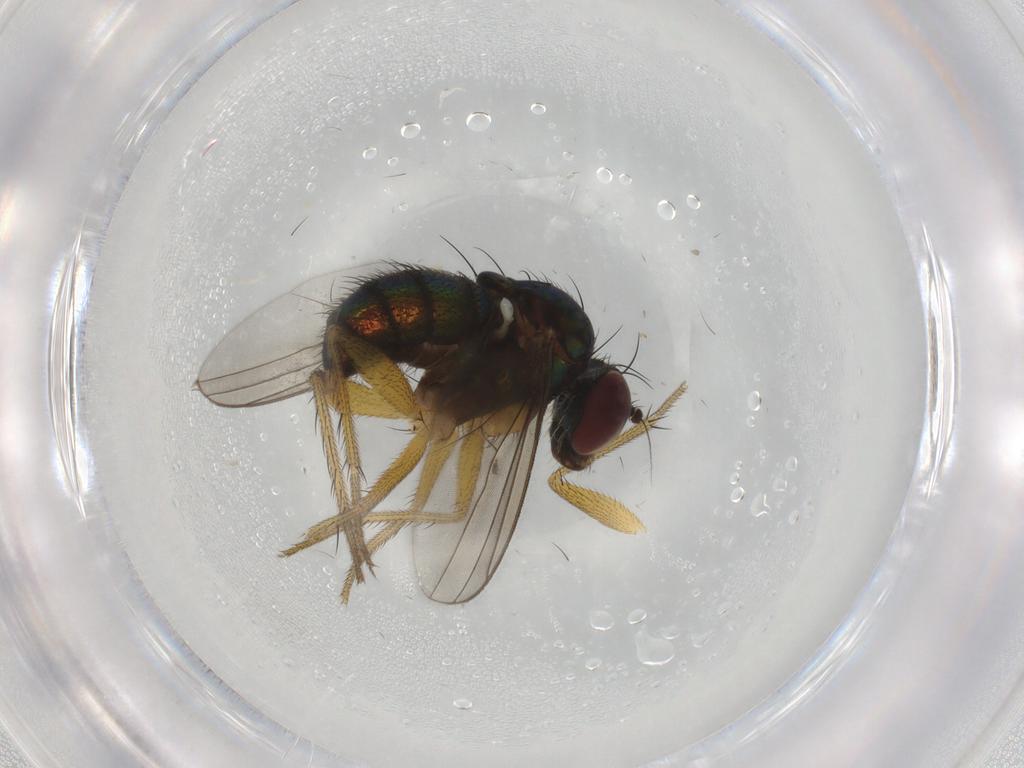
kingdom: Animalia
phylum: Arthropoda
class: Insecta
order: Diptera
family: Dolichopodidae
